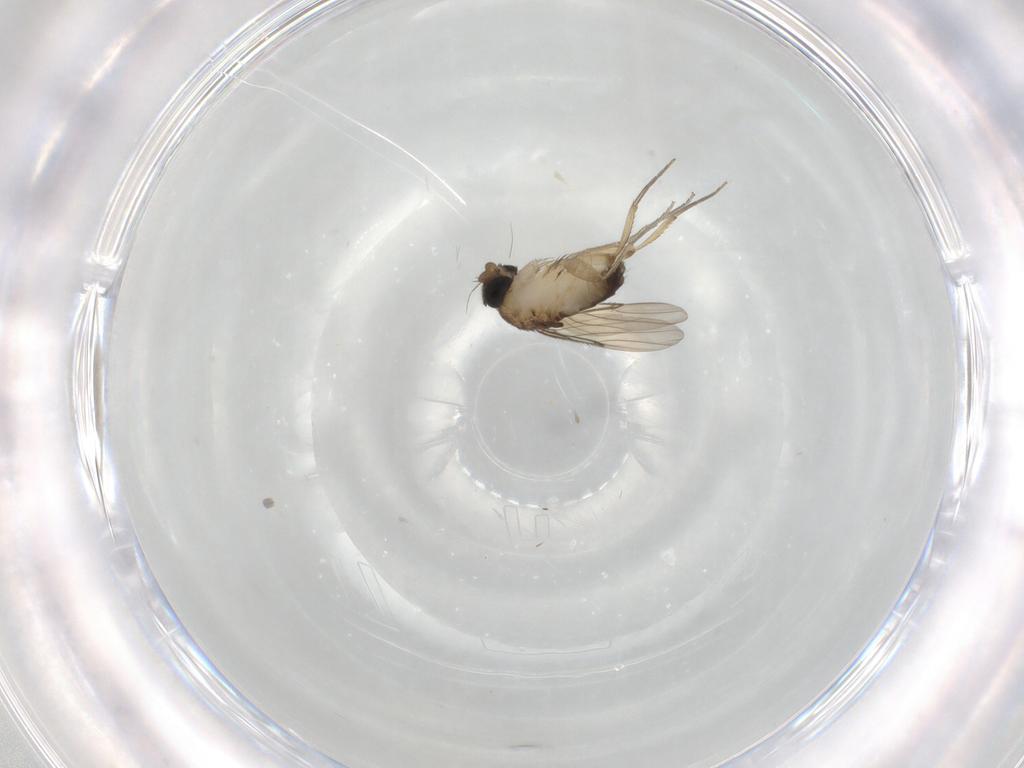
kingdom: Animalia
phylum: Arthropoda
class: Insecta
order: Diptera
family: Phoridae
